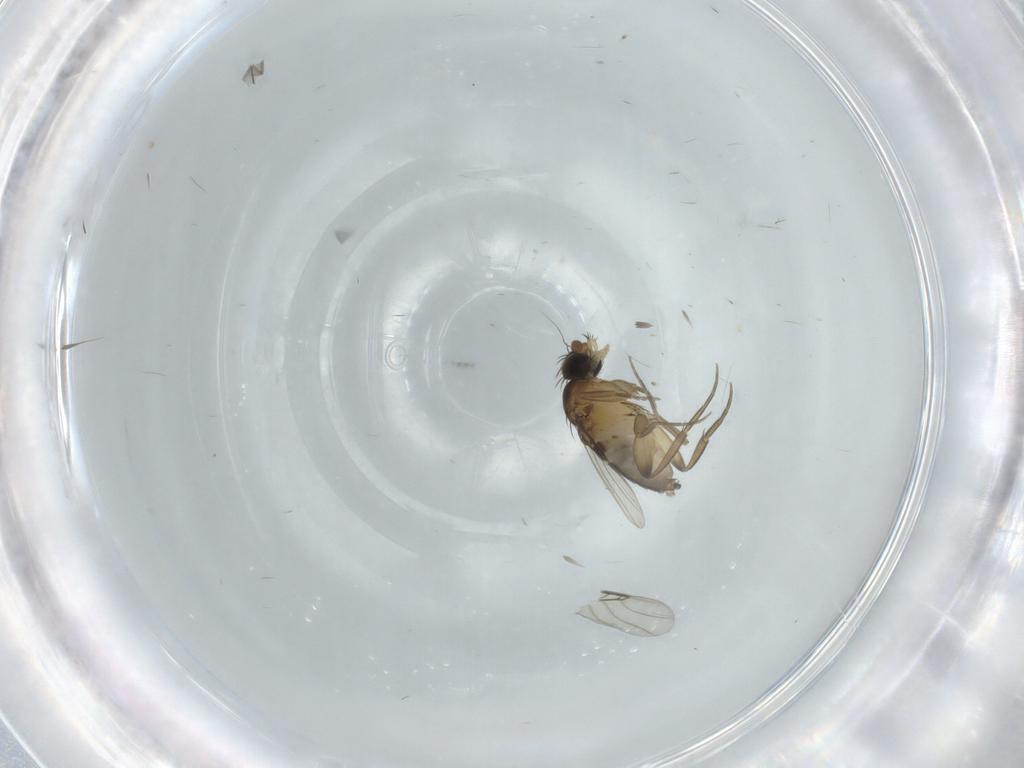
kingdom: Animalia
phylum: Arthropoda
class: Insecta
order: Diptera
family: Phoridae
